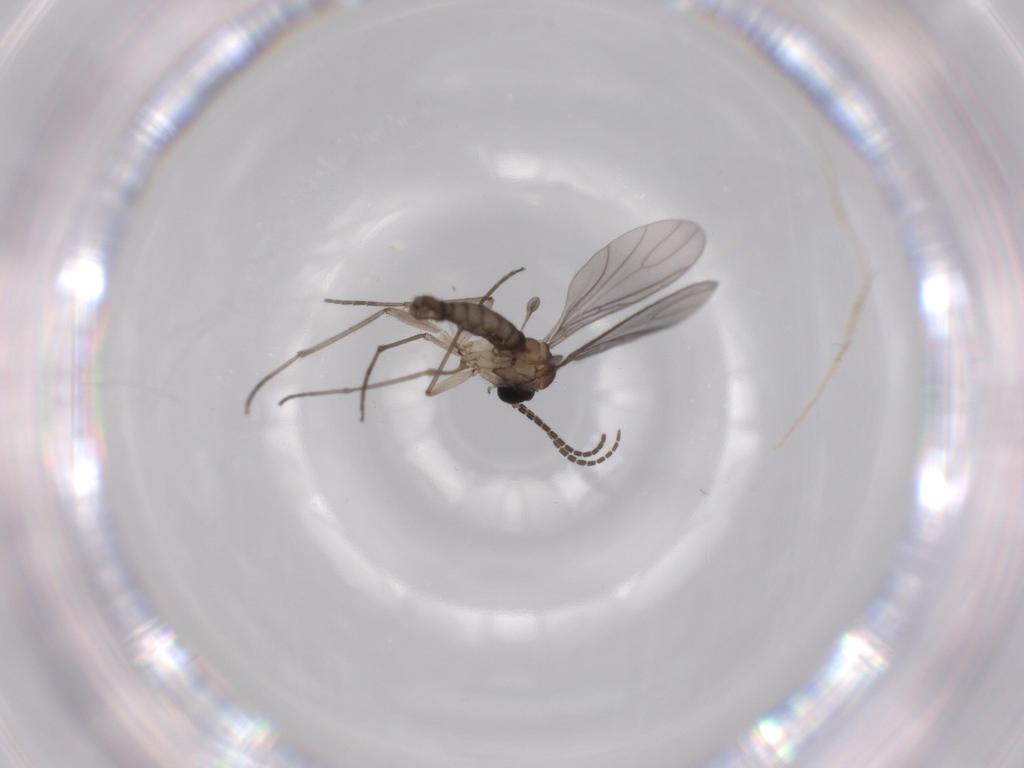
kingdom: Animalia
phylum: Arthropoda
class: Insecta
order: Diptera
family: Sciaridae
